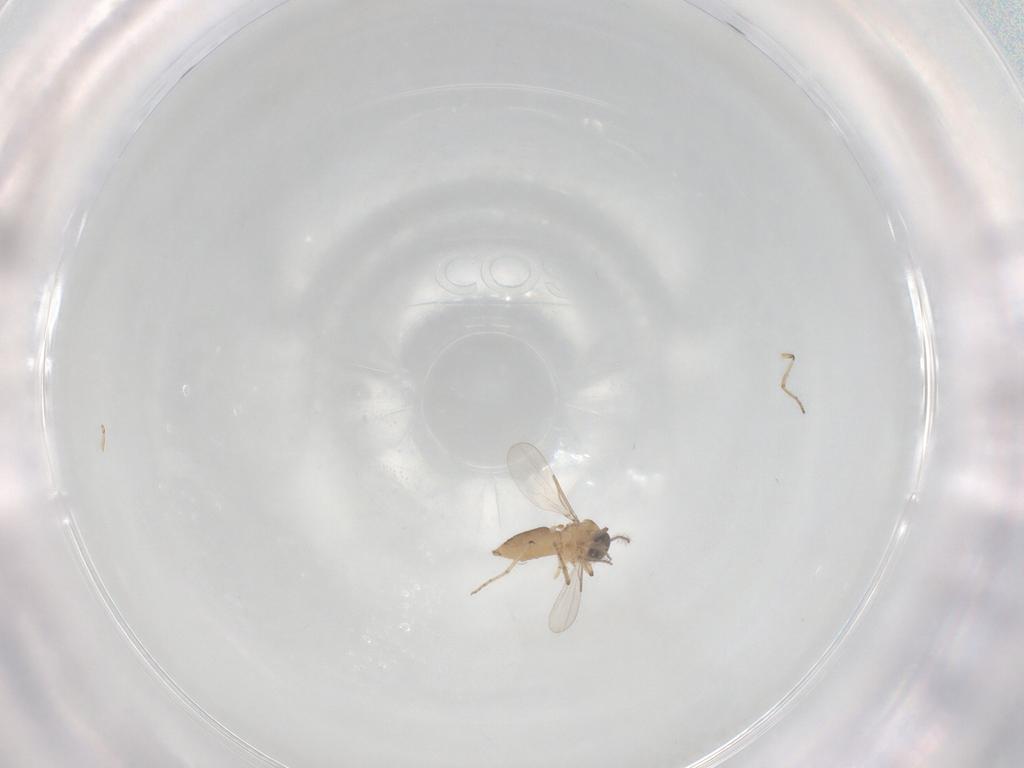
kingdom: Animalia
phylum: Arthropoda
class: Insecta
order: Diptera
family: Ceratopogonidae
